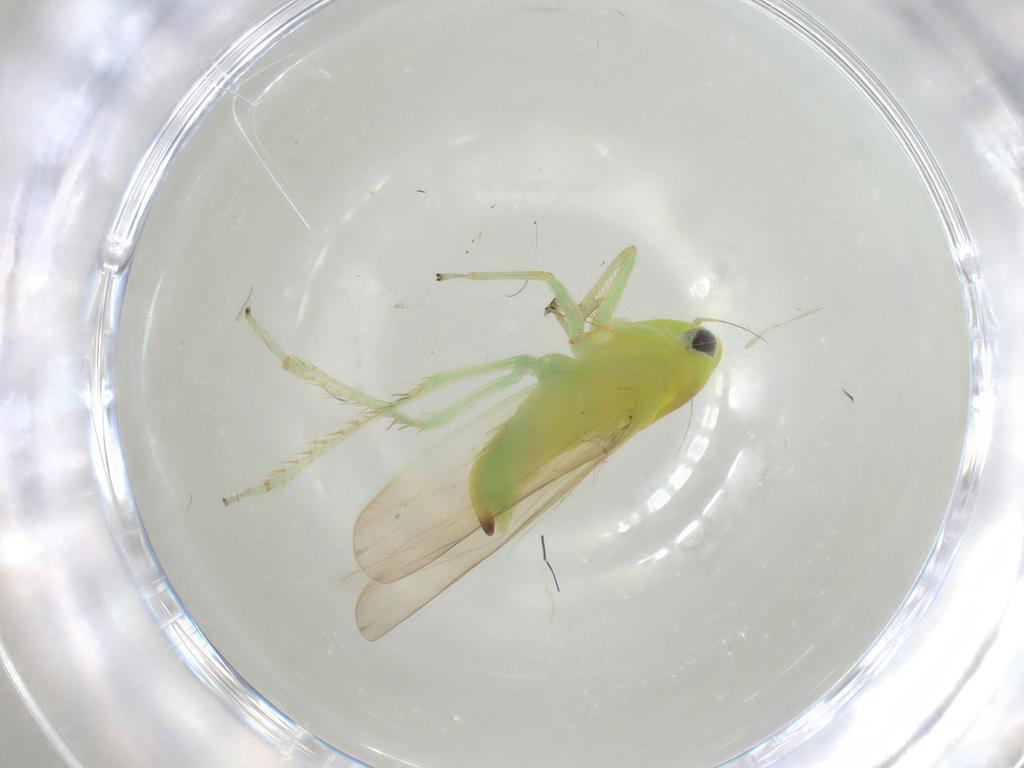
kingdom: Animalia
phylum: Arthropoda
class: Insecta
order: Hemiptera
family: Cicadellidae
